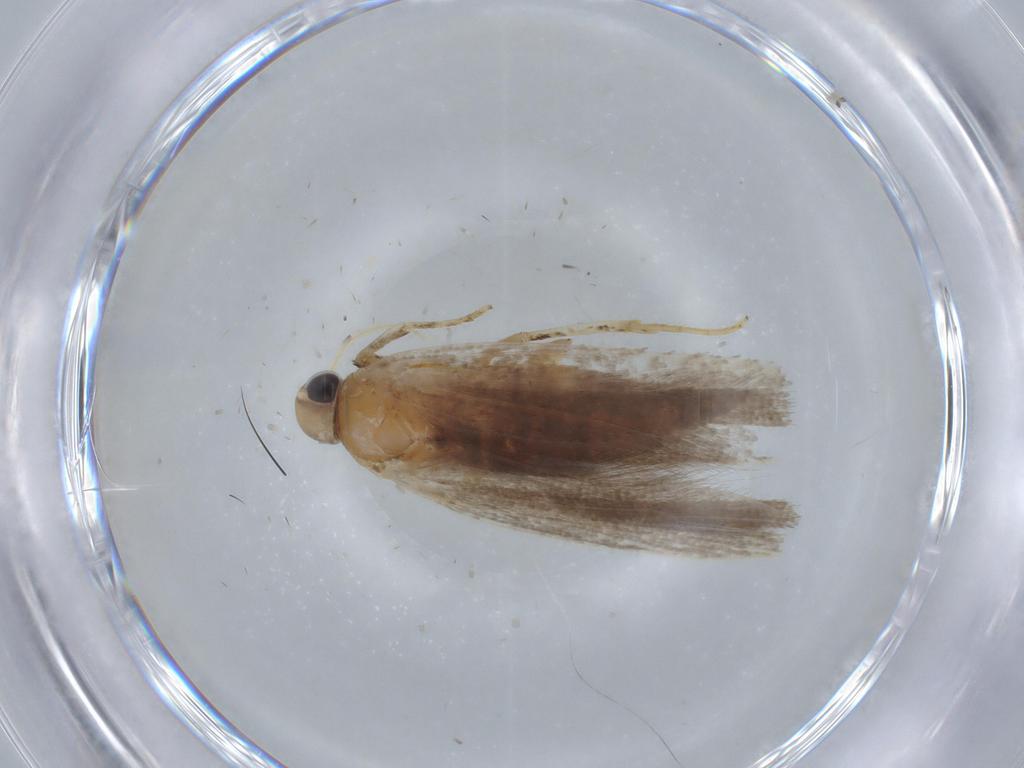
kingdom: Animalia
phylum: Arthropoda
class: Insecta
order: Lepidoptera
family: Gelechiidae
